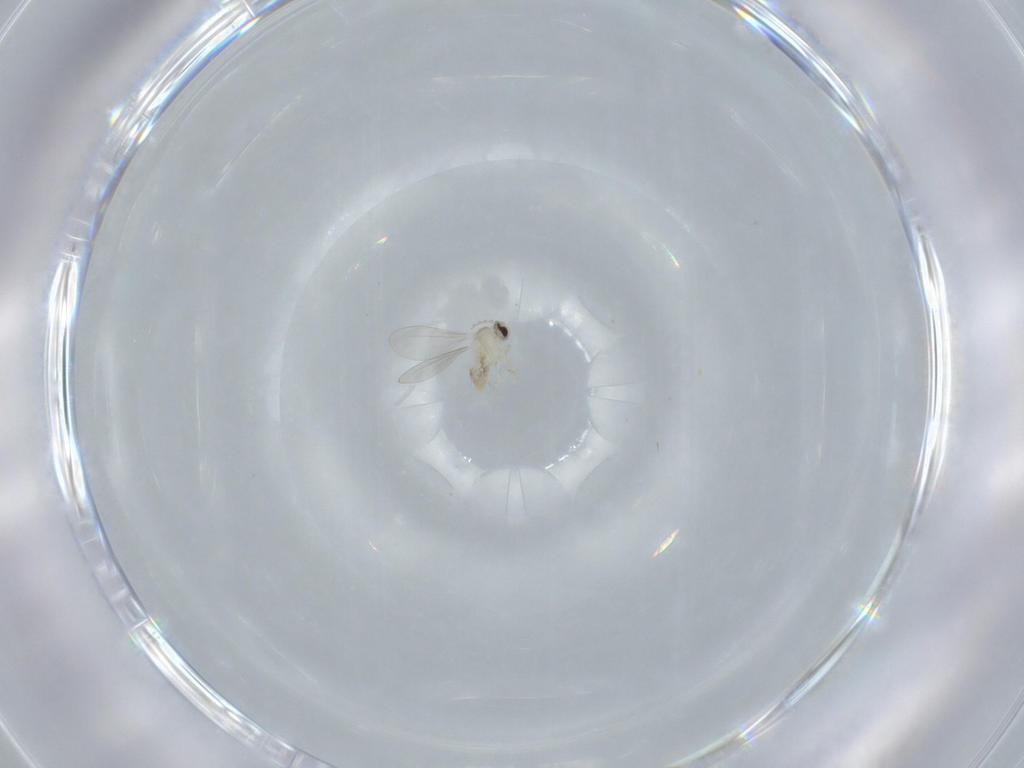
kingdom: Animalia
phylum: Arthropoda
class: Insecta
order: Diptera
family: Cecidomyiidae
